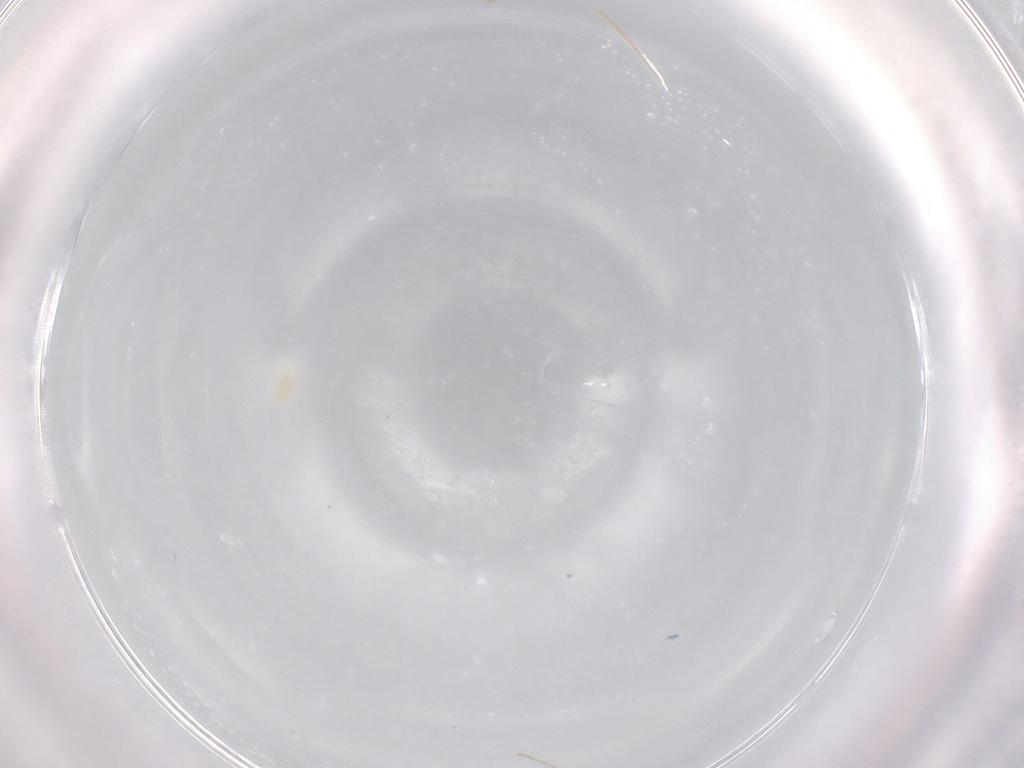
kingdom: Animalia
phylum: Arthropoda
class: Arachnida
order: Trombidiformes
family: Eupodidae
